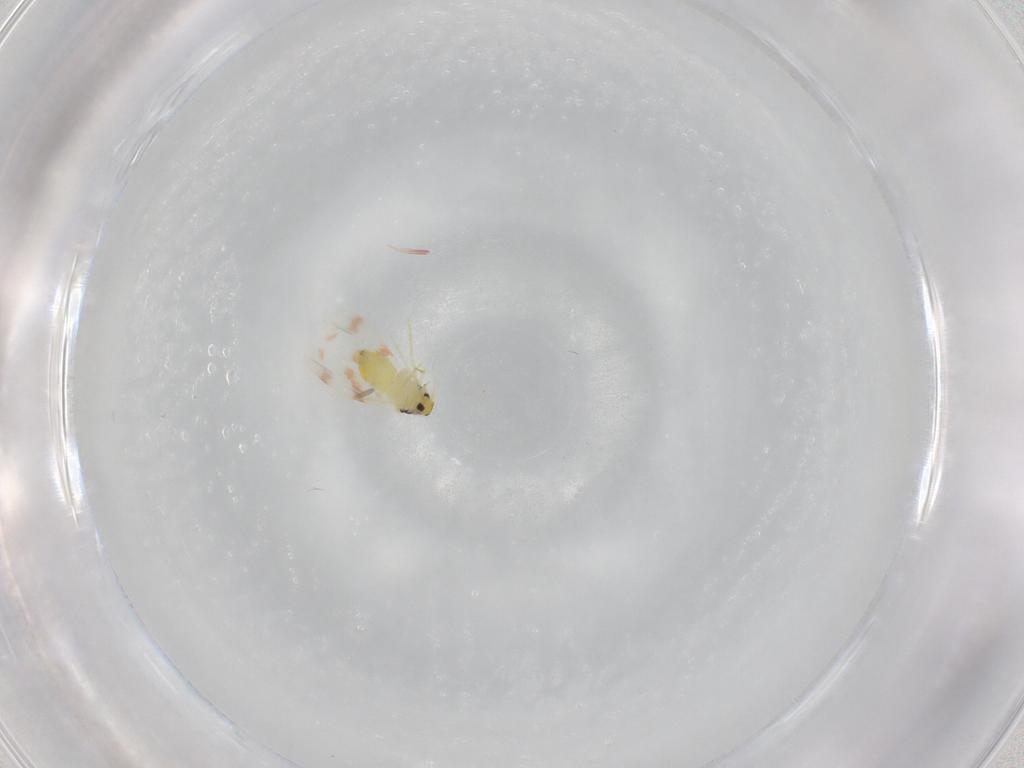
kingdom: Animalia
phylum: Arthropoda
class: Insecta
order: Hemiptera
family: Aleyrodidae
